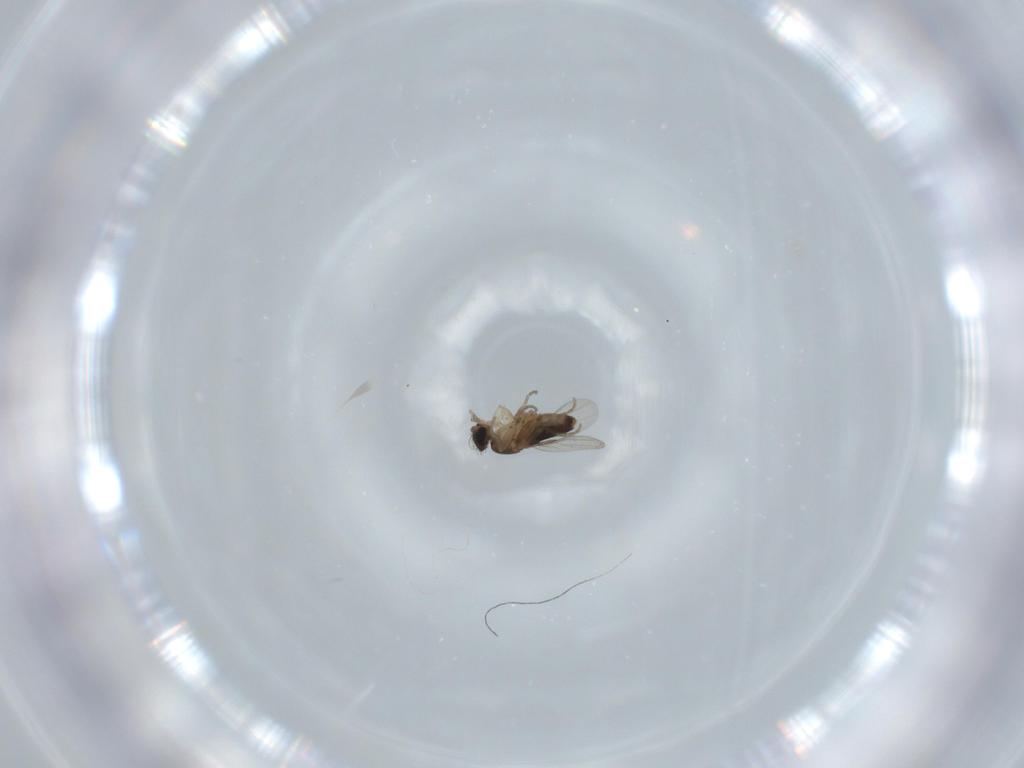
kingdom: Animalia
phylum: Arthropoda
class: Insecta
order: Diptera
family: Phoridae
